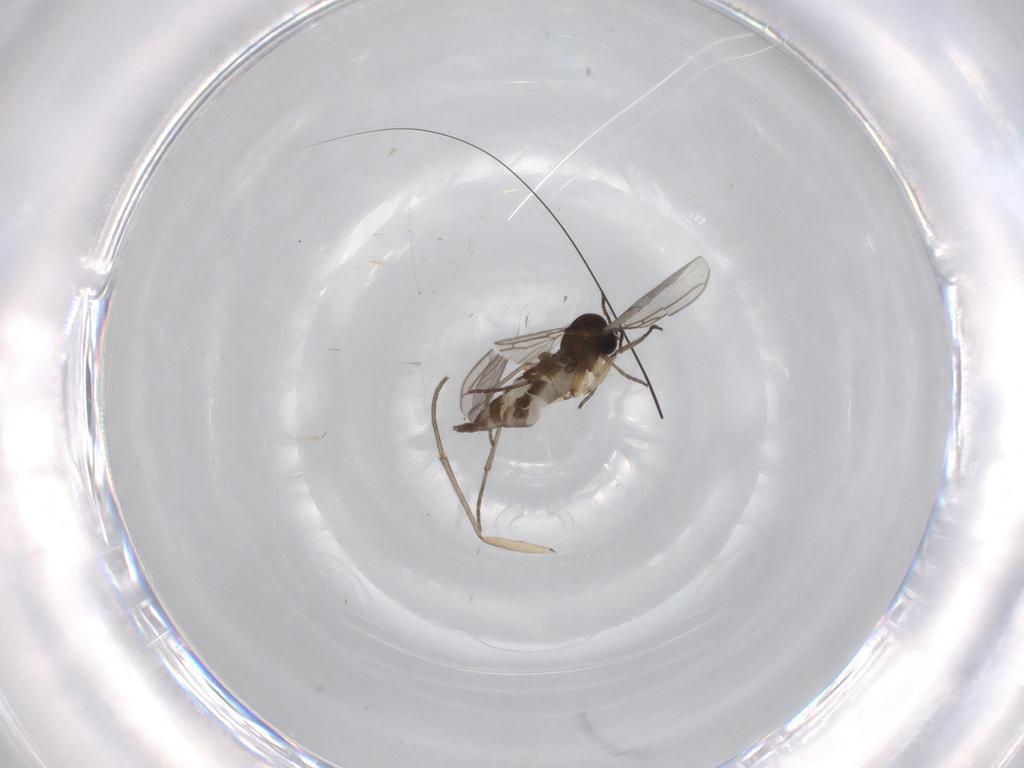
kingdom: Animalia
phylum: Arthropoda
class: Insecta
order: Diptera
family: Sciaridae
